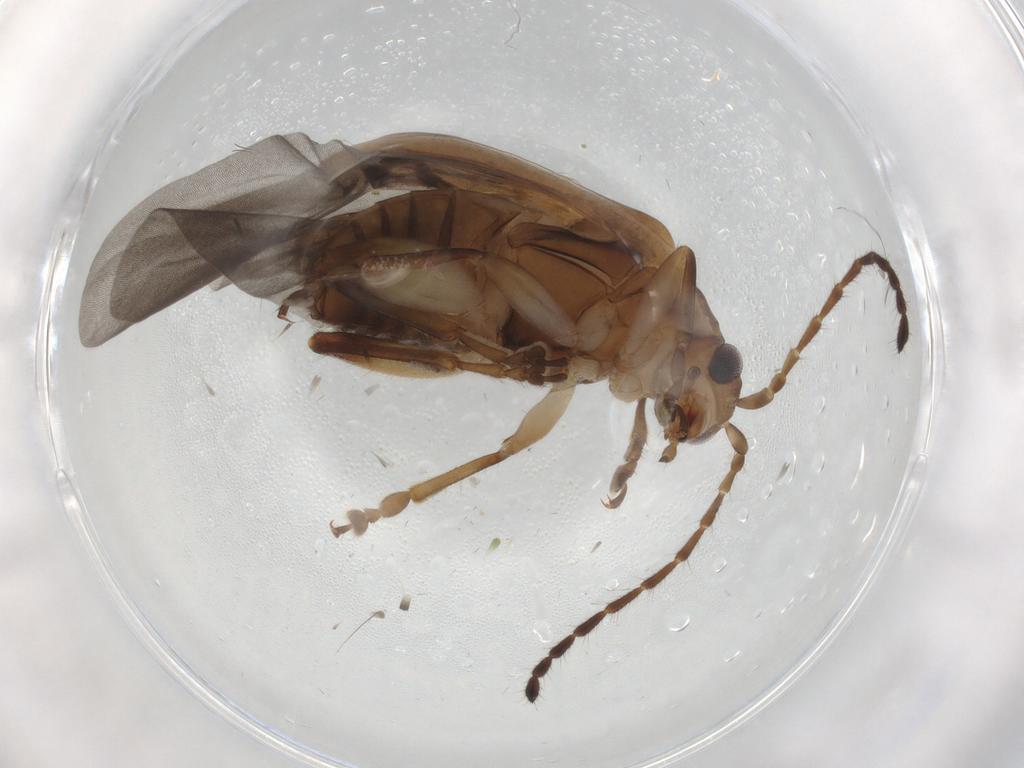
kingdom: Animalia
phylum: Arthropoda
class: Insecta
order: Coleoptera
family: Chrysomelidae
